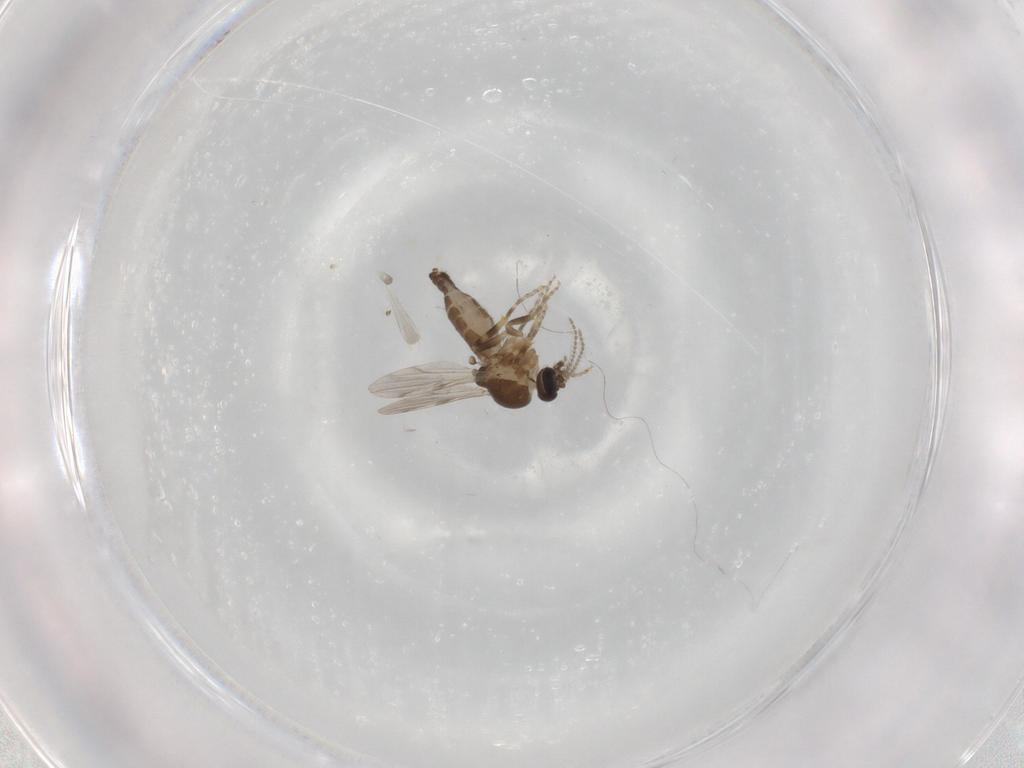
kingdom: Animalia
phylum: Arthropoda
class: Insecta
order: Diptera
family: Ceratopogonidae
